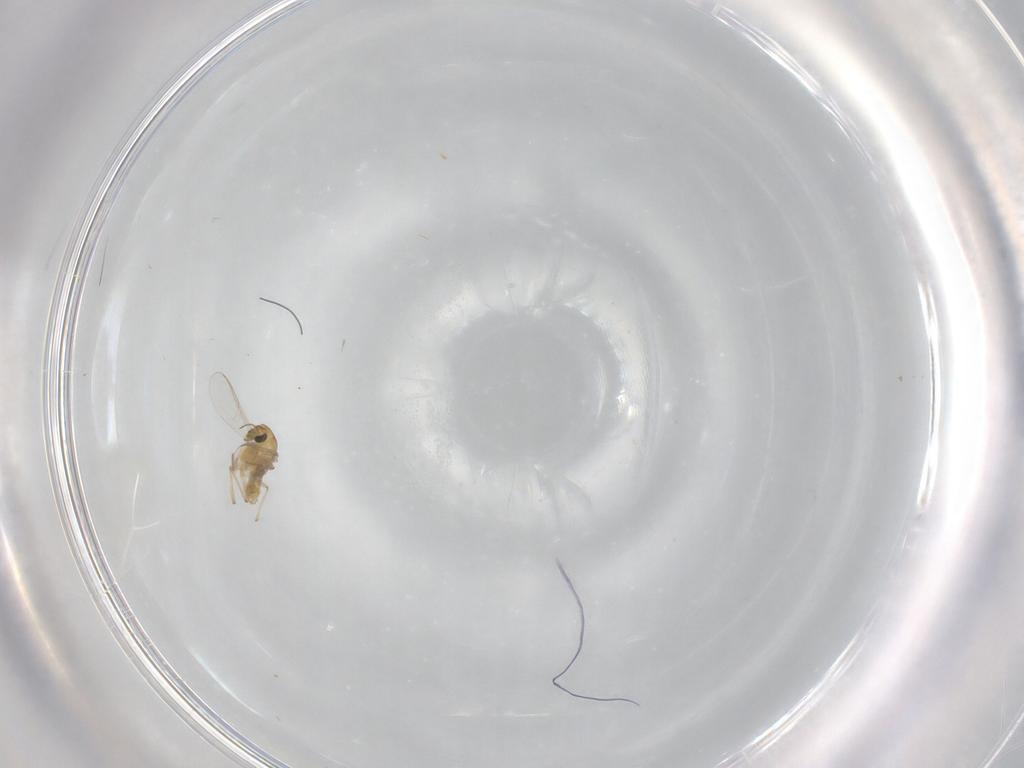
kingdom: Animalia
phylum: Arthropoda
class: Insecta
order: Diptera
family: Chironomidae
